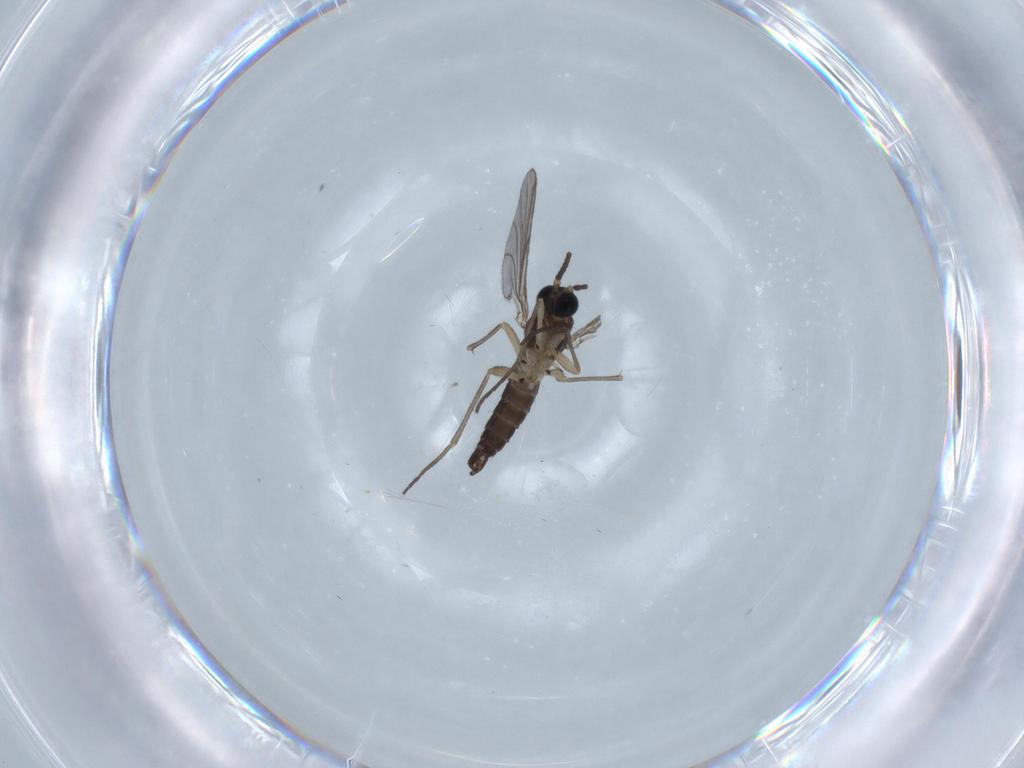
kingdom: Animalia
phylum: Arthropoda
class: Insecta
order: Diptera
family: Sciaridae
